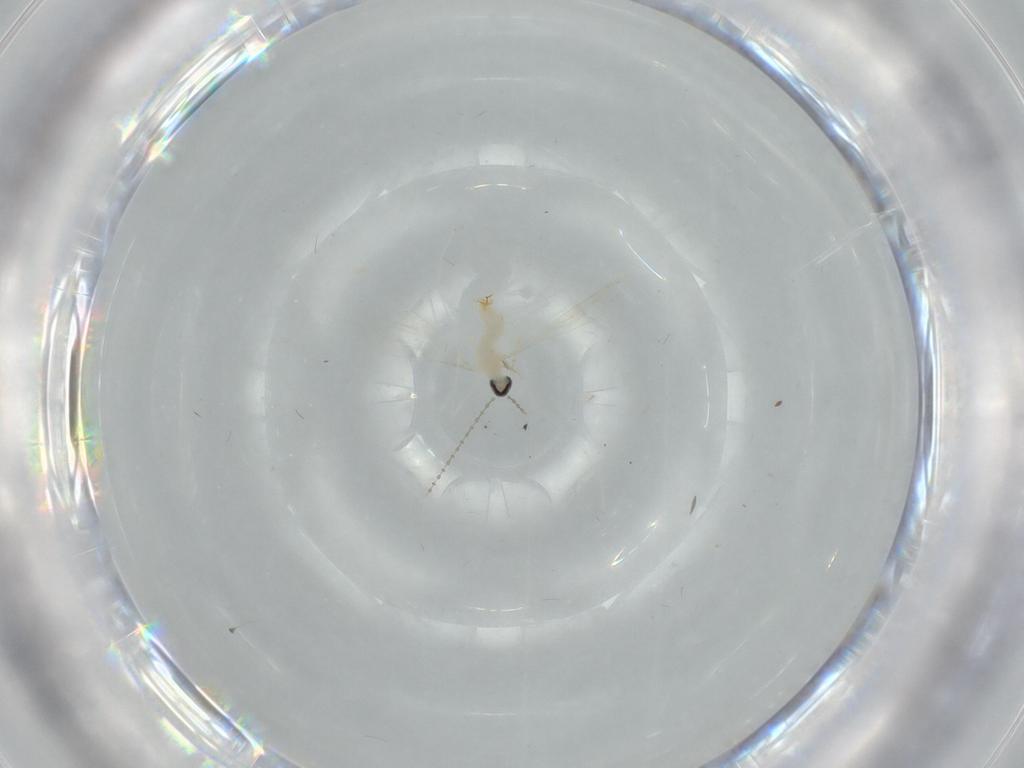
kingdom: Animalia
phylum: Arthropoda
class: Insecta
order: Diptera
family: Cecidomyiidae
